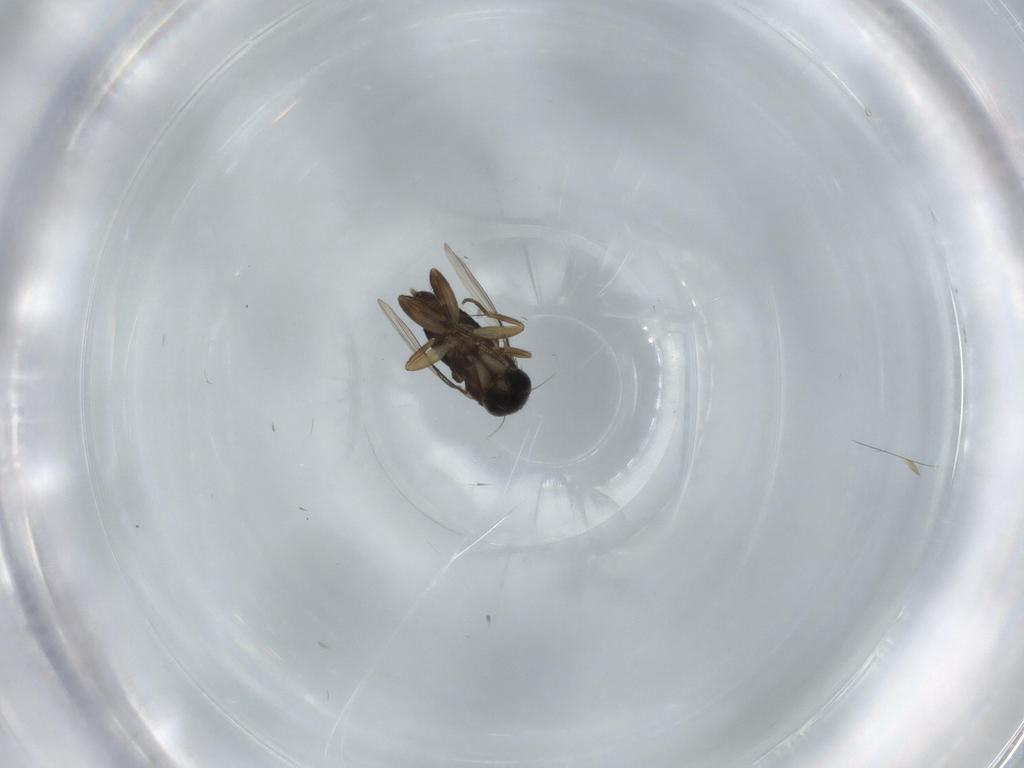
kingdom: Animalia
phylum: Arthropoda
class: Insecta
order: Diptera
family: Phoridae
